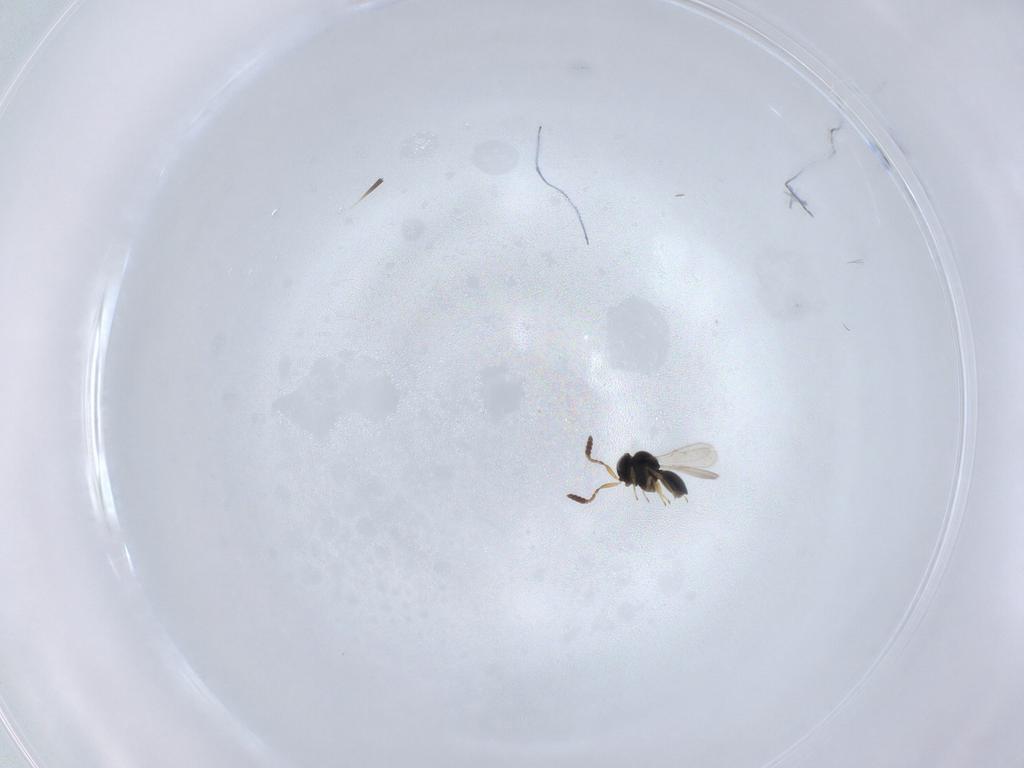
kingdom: Animalia
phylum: Arthropoda
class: Insecta
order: Hymenoptera
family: Scelionidae
